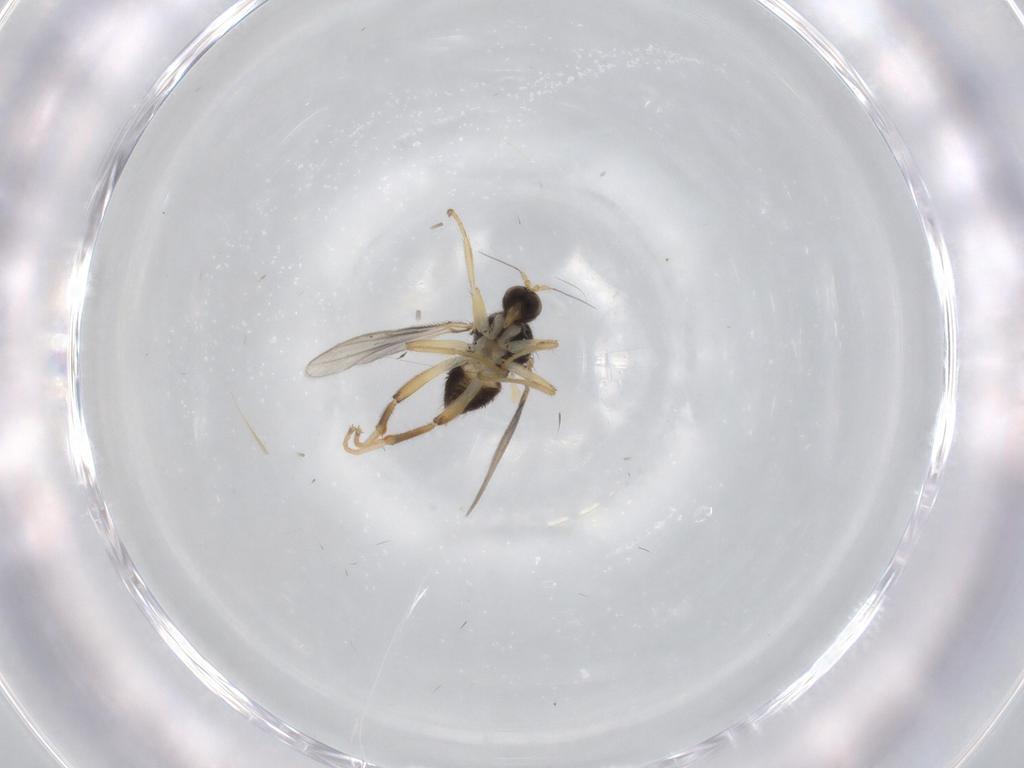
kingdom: Animalia
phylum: Arthropoda
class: Insecta
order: Diptera
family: Hybotidae
